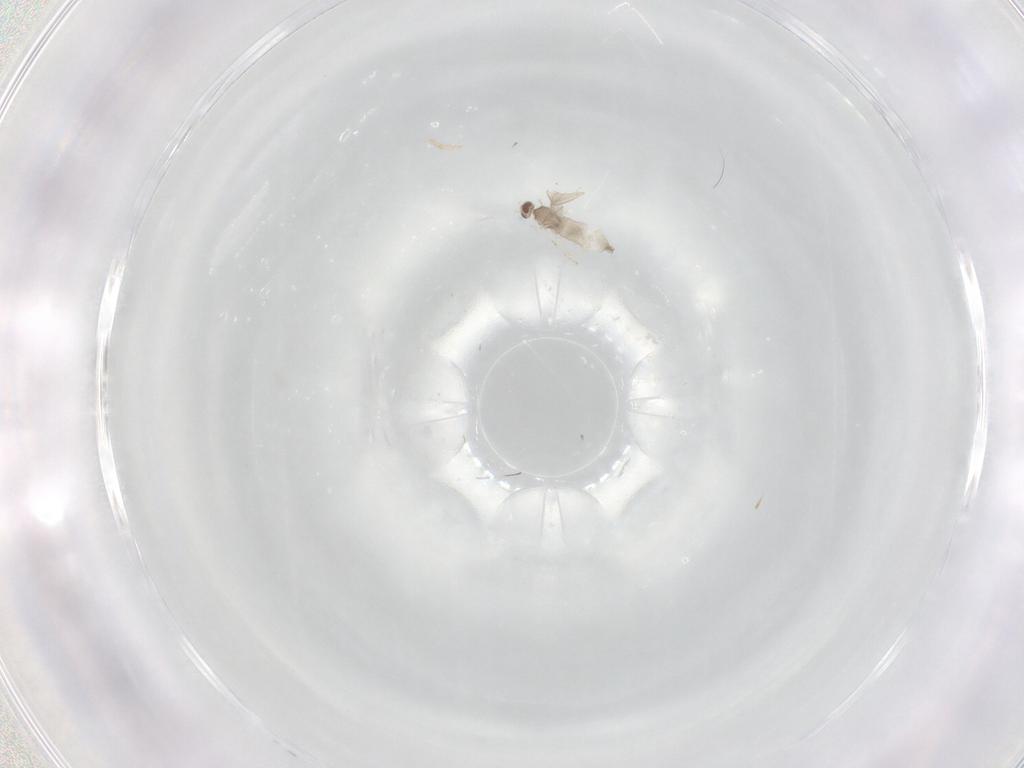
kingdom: Animalia
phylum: Arthropoda
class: Insecta
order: Diptera
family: Cecidomyiidae
